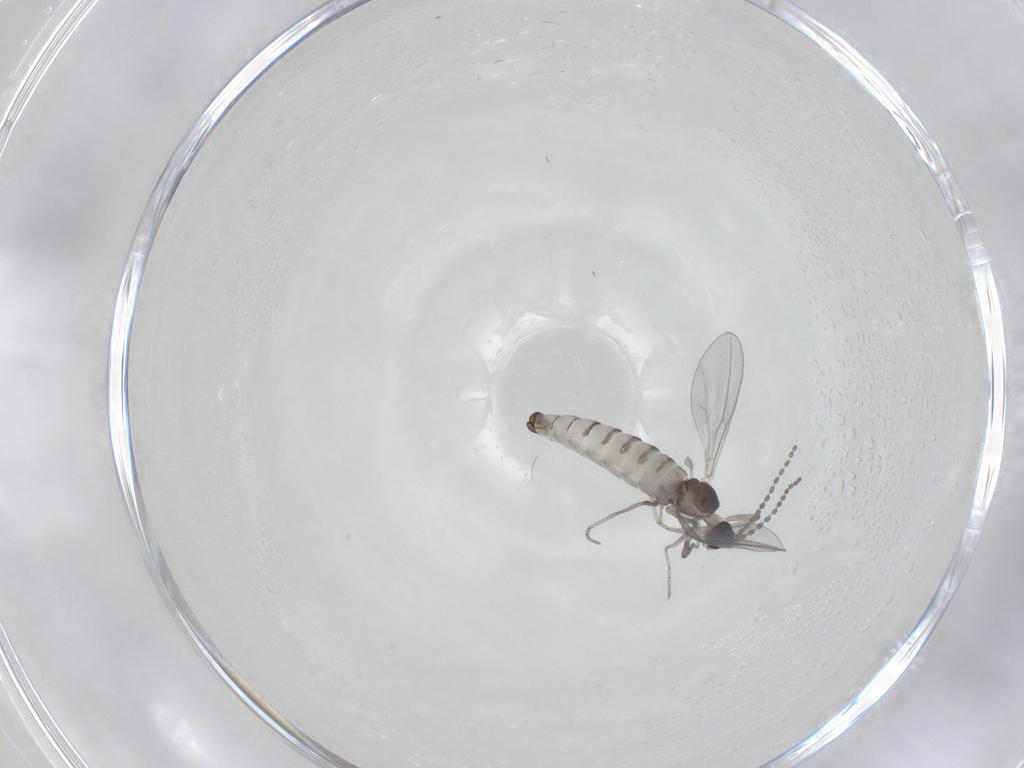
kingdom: Animalia
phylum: Arthropoda
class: Insecta
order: Diptera
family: Cecidomyiidae
